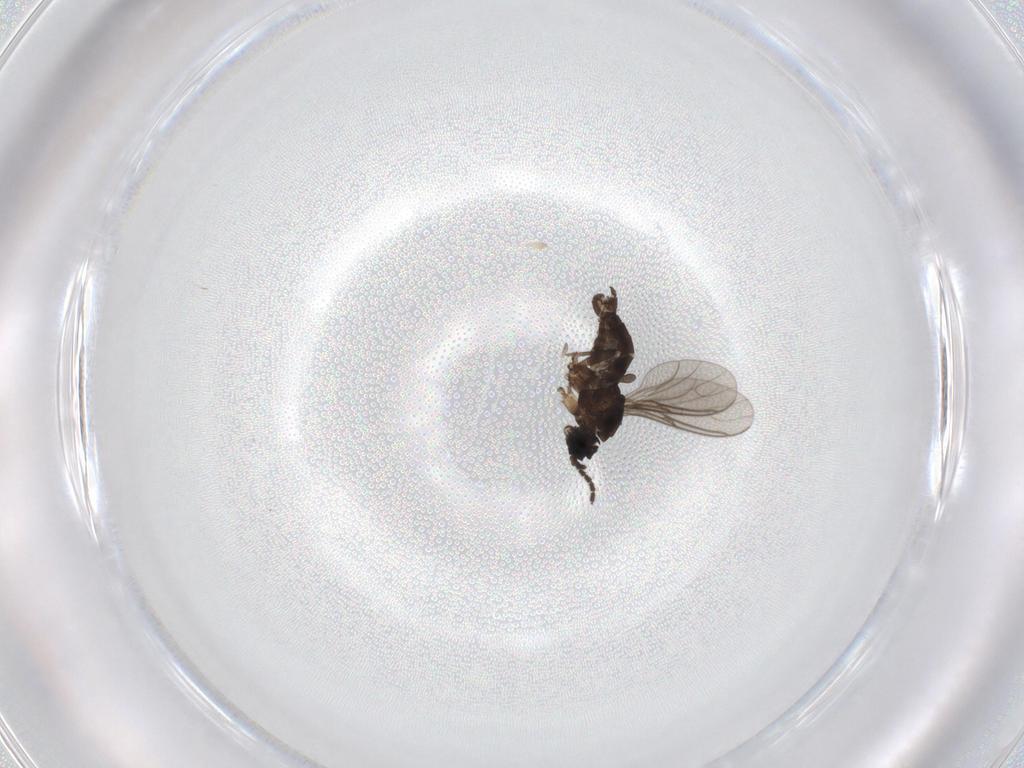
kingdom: Animalia
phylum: Arthropoda
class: Insecta
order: Diptera
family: Sciaridae
